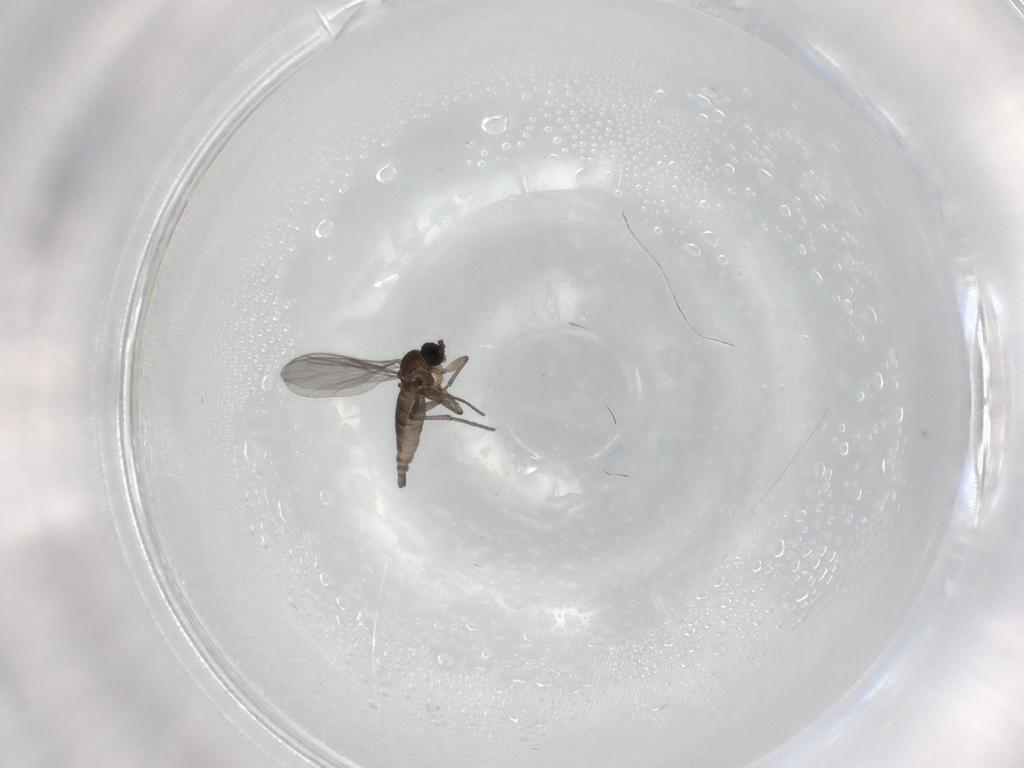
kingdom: Animalia
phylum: Arthropoda
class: Insecta
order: Diptera
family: Sciaridae
